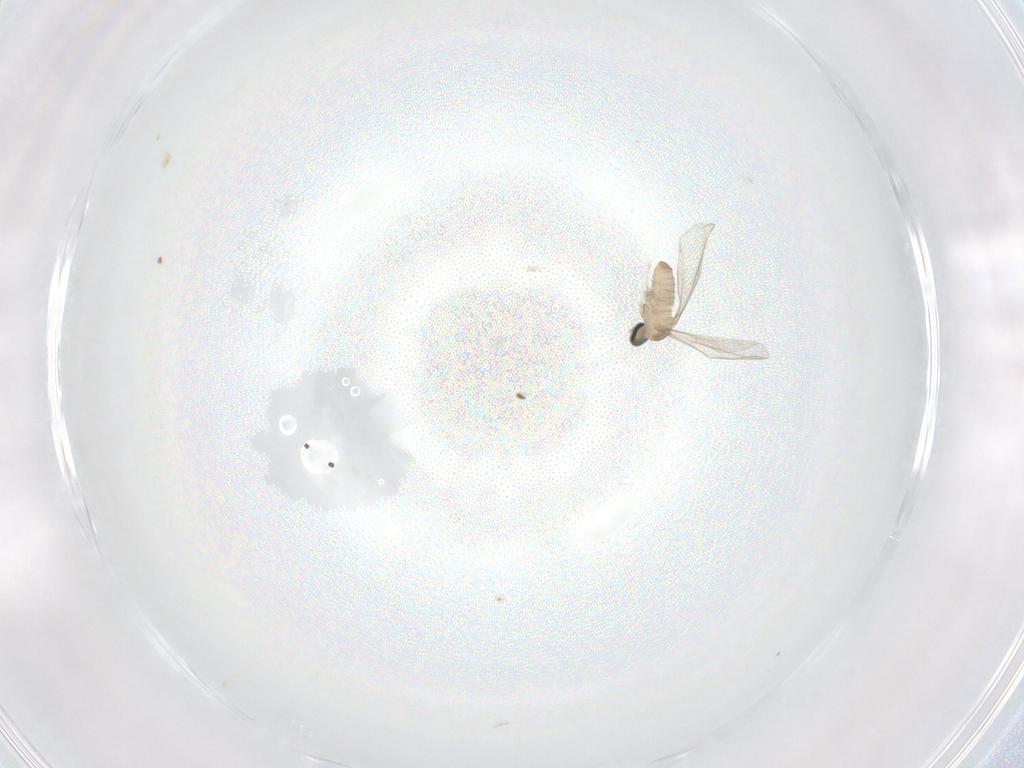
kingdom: Animalia
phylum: Arthropoda
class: Insecta
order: Diptera
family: Cecidomyiidae
